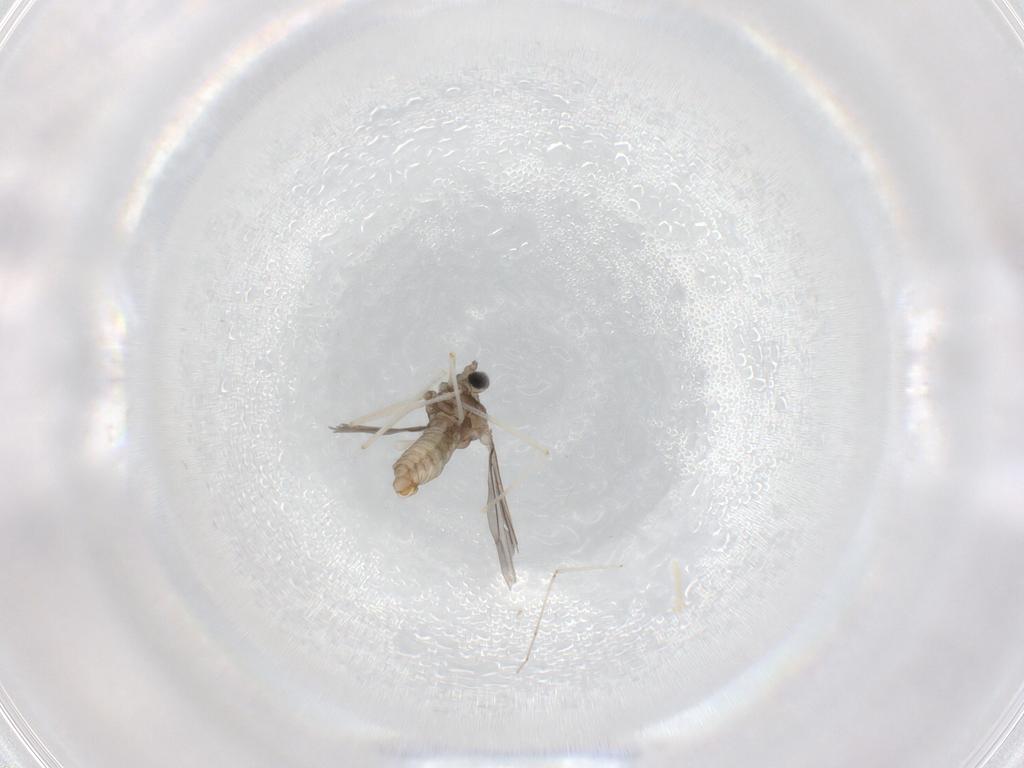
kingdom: Animalia
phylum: Arthropoda
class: Insecta
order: Diptera
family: Cecidomyiidae
